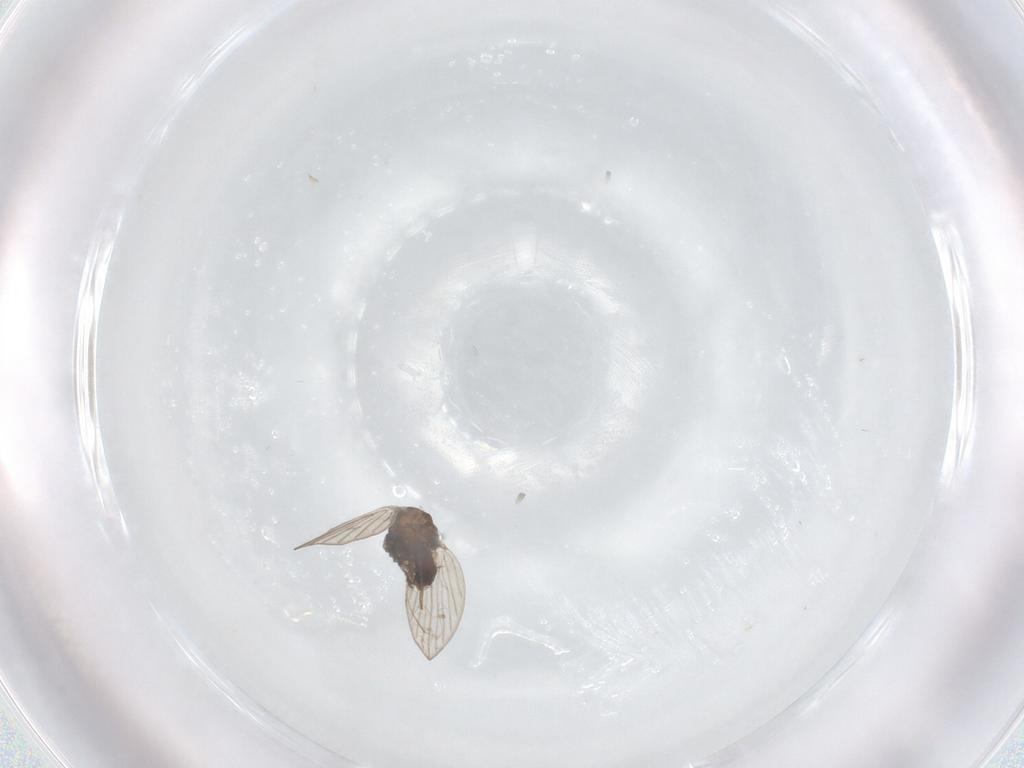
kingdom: Animalia
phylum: Arthropoda
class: Insecta
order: Diptera
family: Psychodidae
